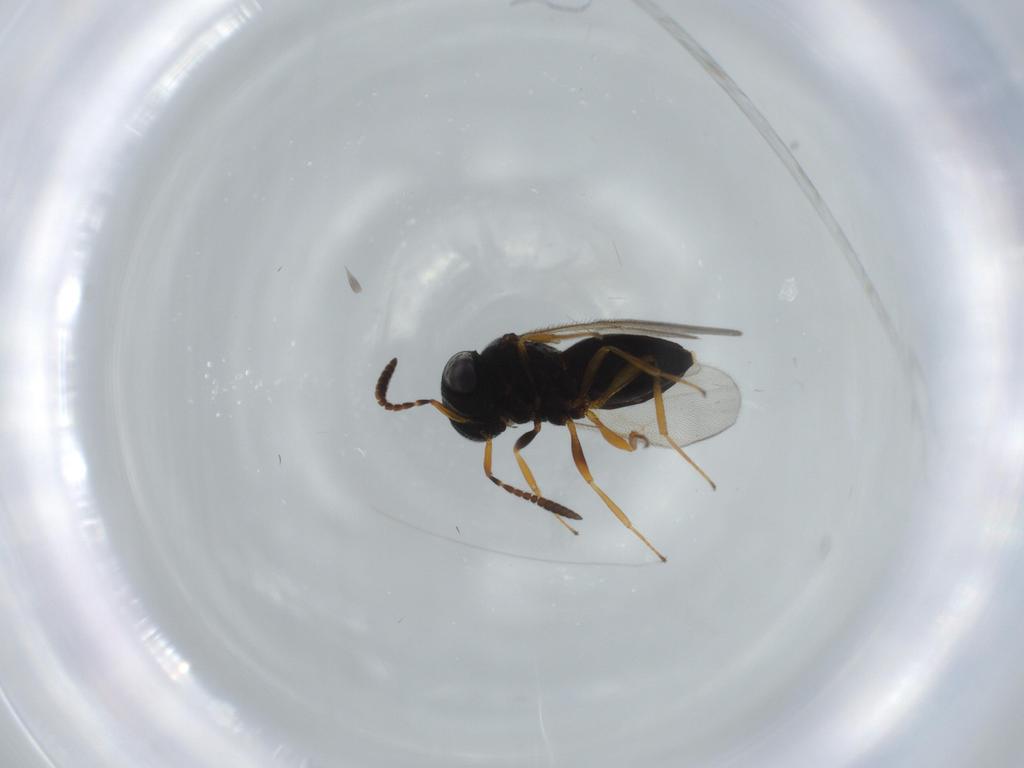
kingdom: Animalia
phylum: Arthropoda
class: Insecta
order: Hymenoptera
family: Scelionidae
